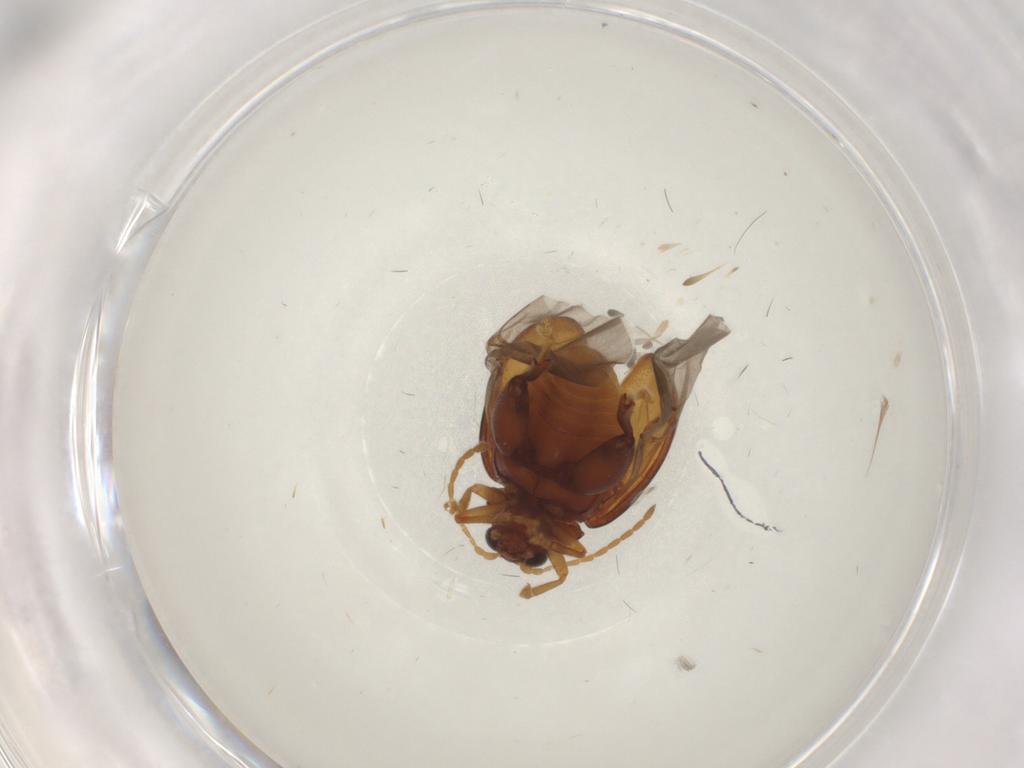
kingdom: Animalia
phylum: Arthropoda
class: Insecta
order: Coleoptera
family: Chrysomelidae
